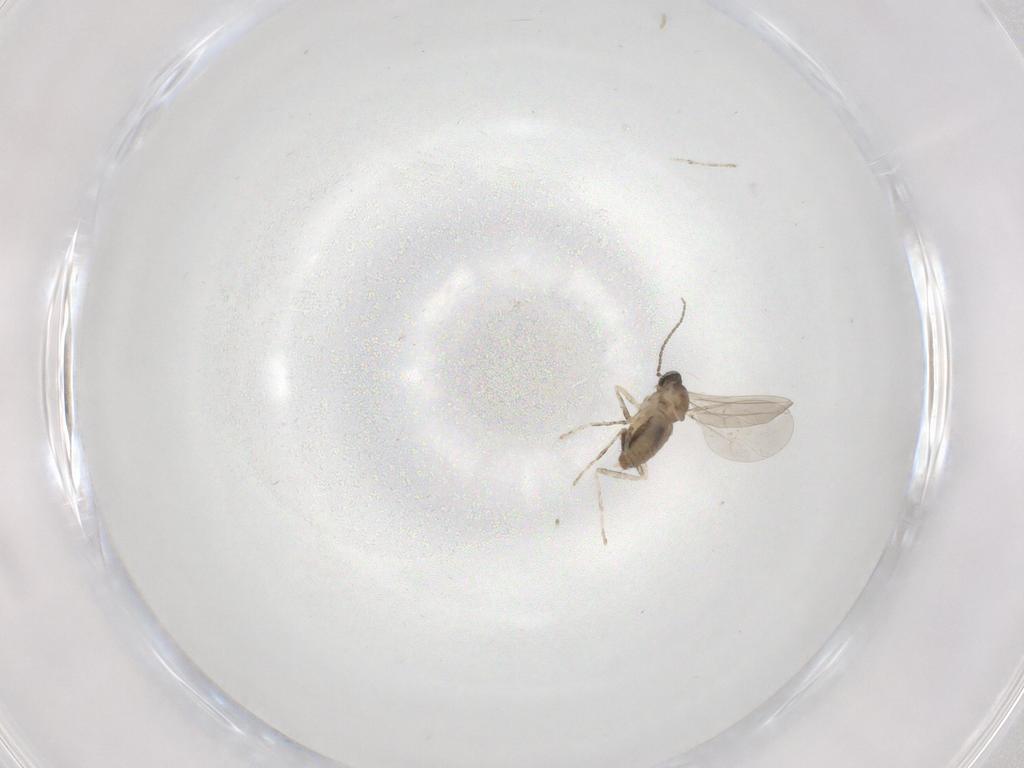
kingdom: Animalia
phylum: Arthropoda
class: Insecta
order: Diptera
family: Cecidomyiidae
